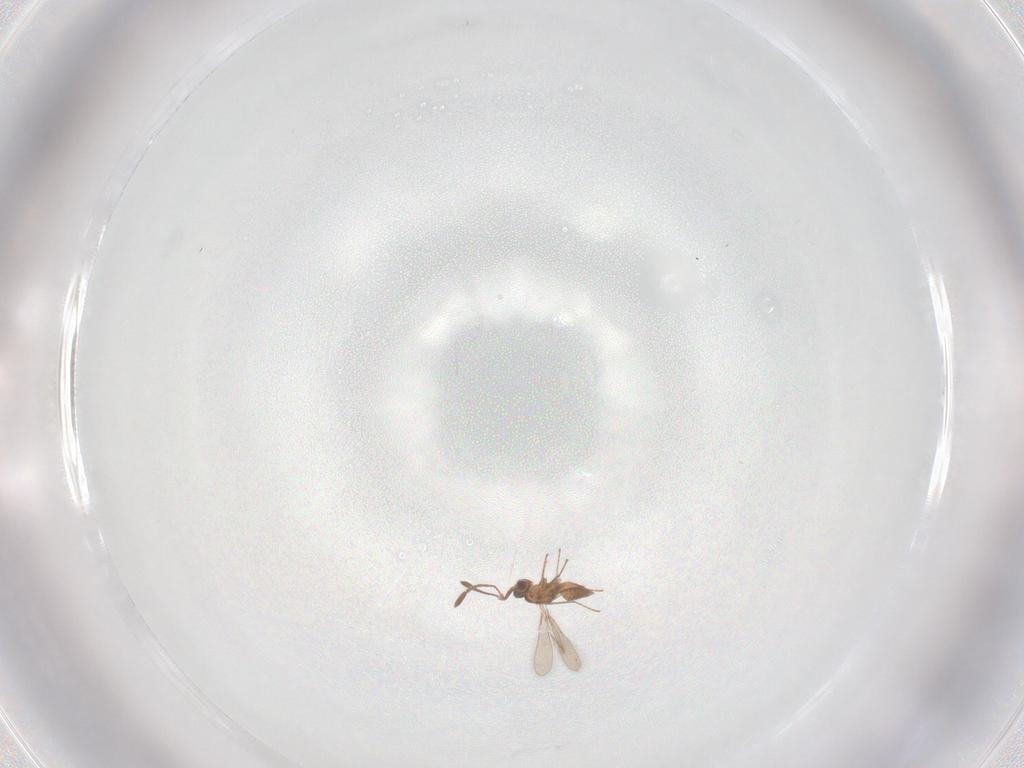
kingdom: Animalia
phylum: Arthropoda
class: Insecta
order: Hymenoptera
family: Mymaridae
